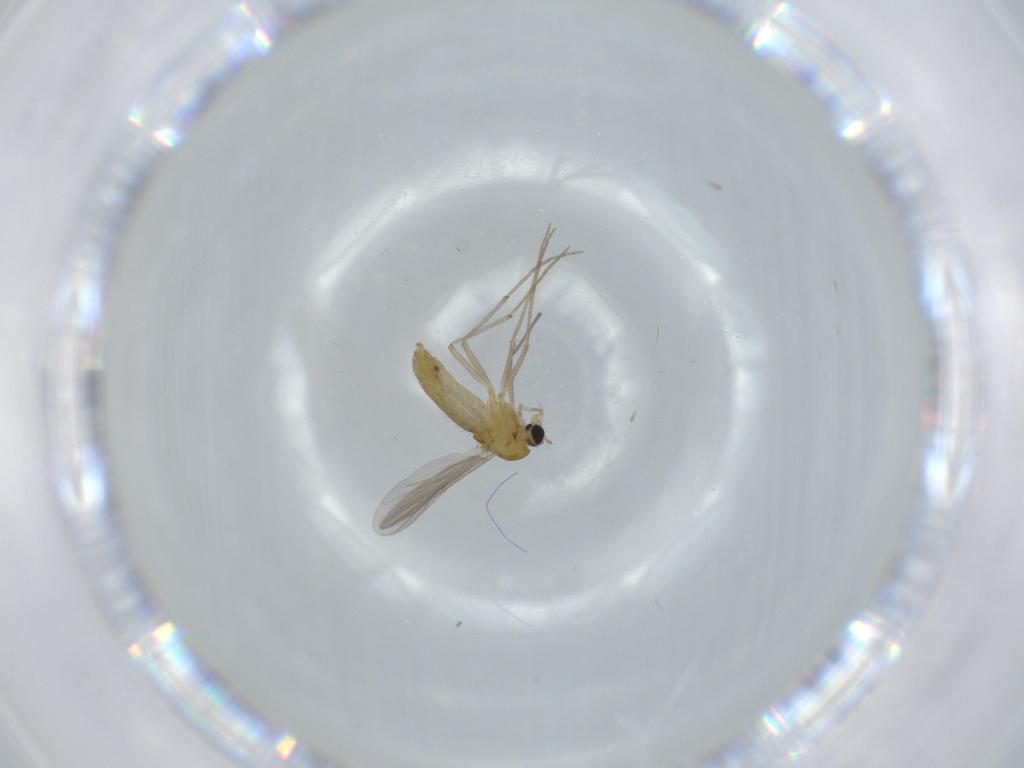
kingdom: Animalia
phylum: Arthropoda
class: Insecta
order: Diptera
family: Chironomidae
